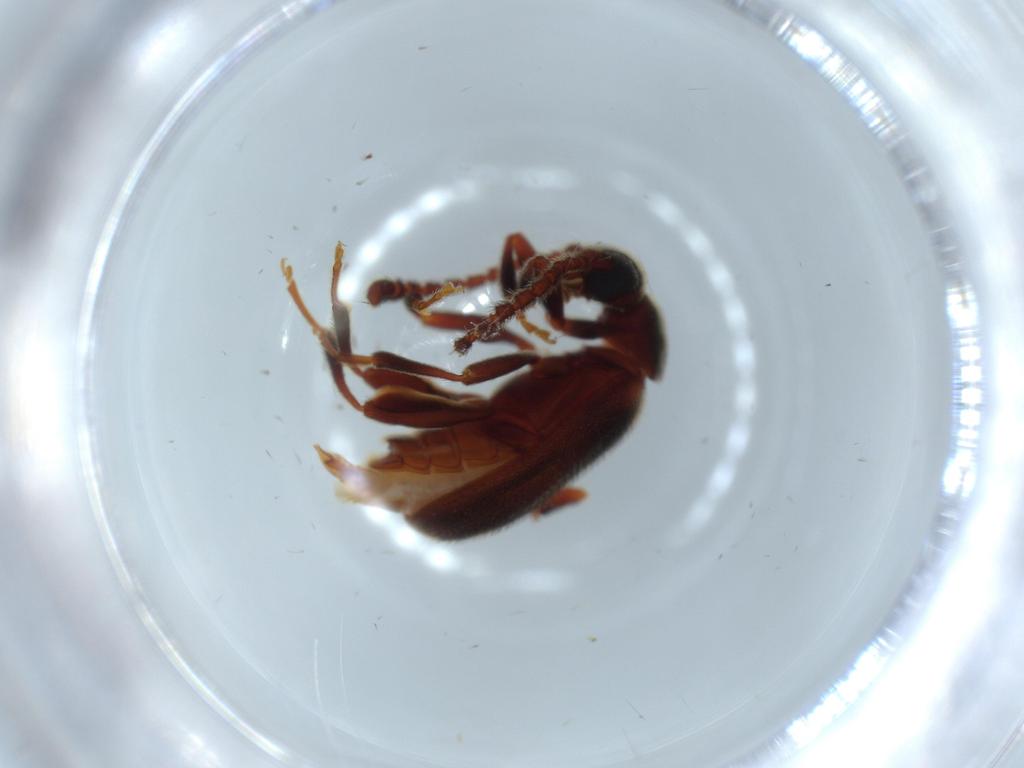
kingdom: Animalia
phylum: Arthropoda
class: Insecta
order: Coleoptera
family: Aderidae
